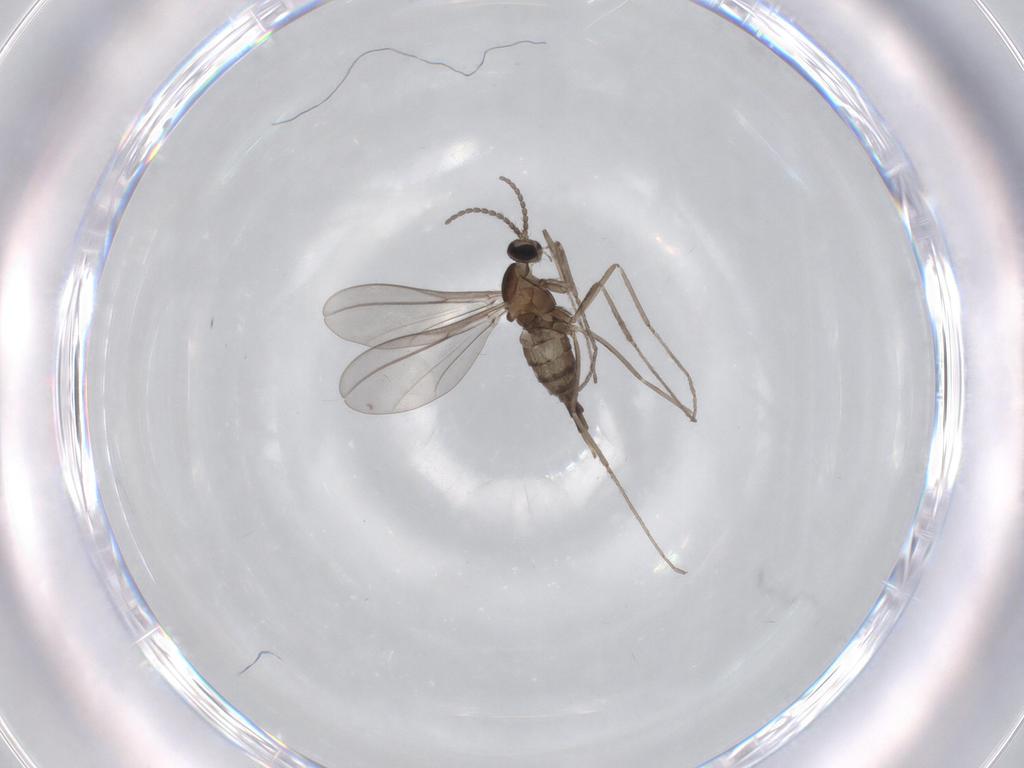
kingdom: Animalia
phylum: Arthropoda
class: Insecta
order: Diptera
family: Cecidomyiidae
